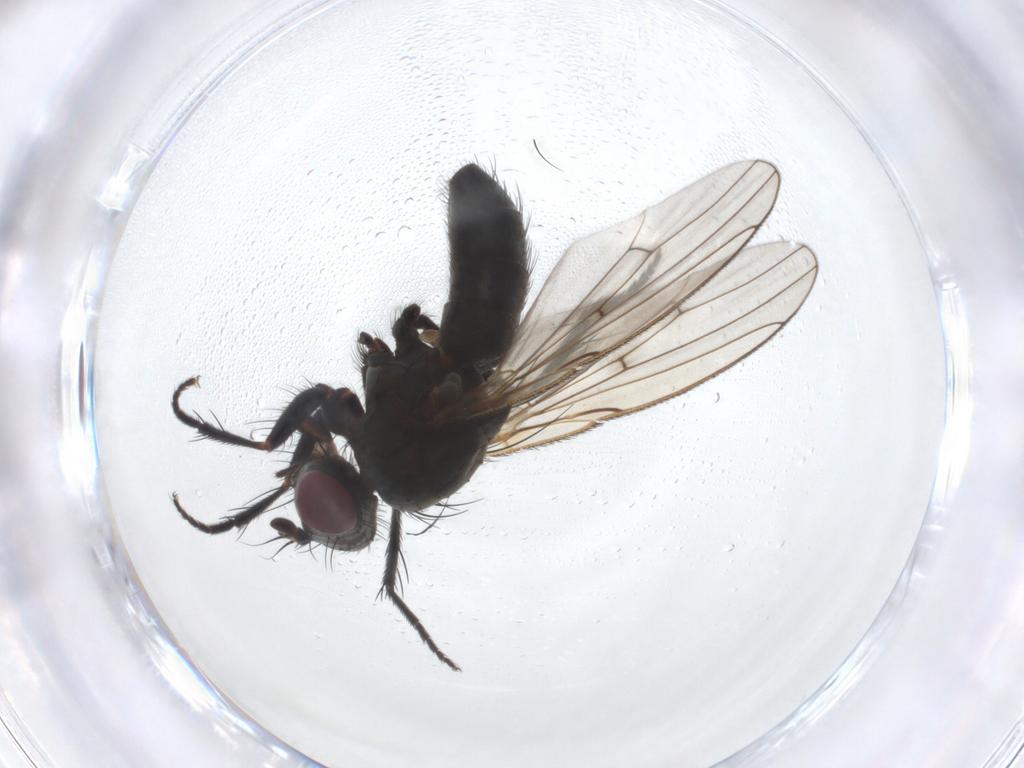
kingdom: Animalia
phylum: Arthropoda
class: Insecta
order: Diptera
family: Muscidae
